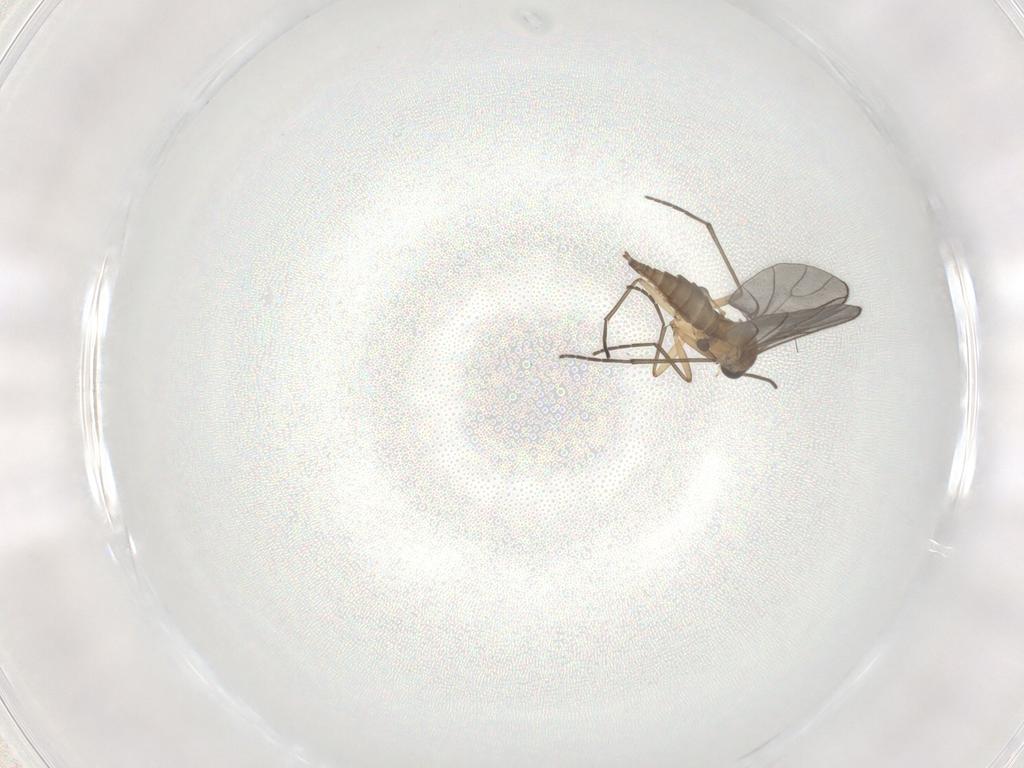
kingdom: Animalia
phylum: Arthropoda
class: Insecta
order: Diptera
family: Sciaridae
